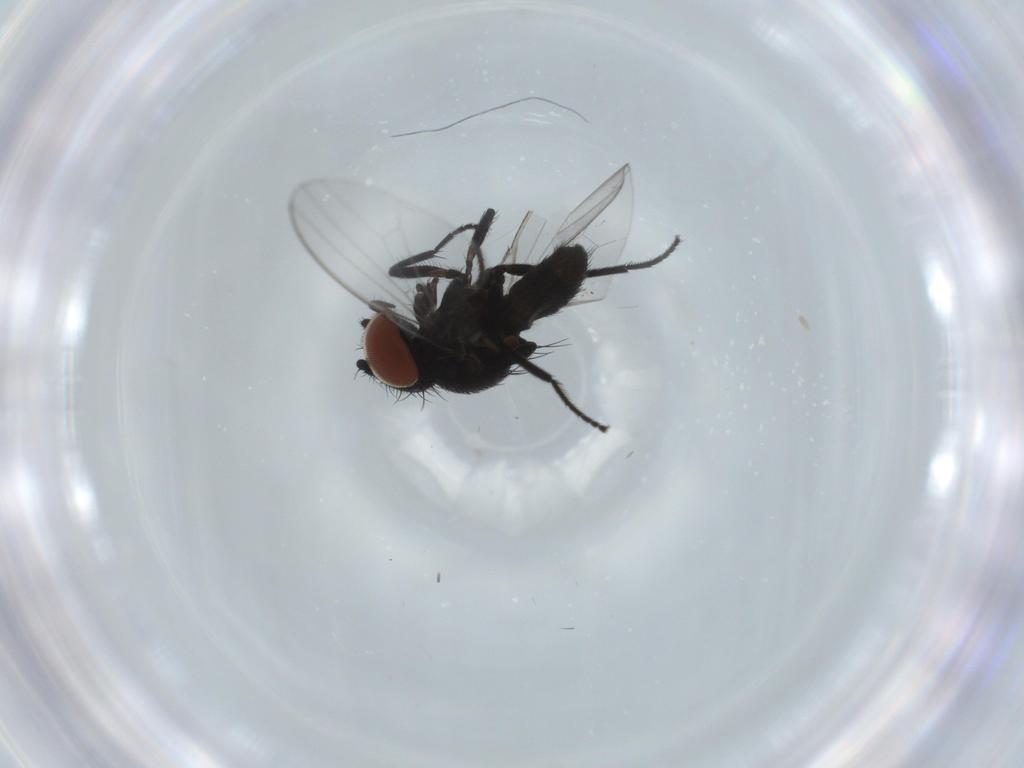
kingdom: Animalia
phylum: Arthropoda
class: Insecta
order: Diptera
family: Milichiidae
